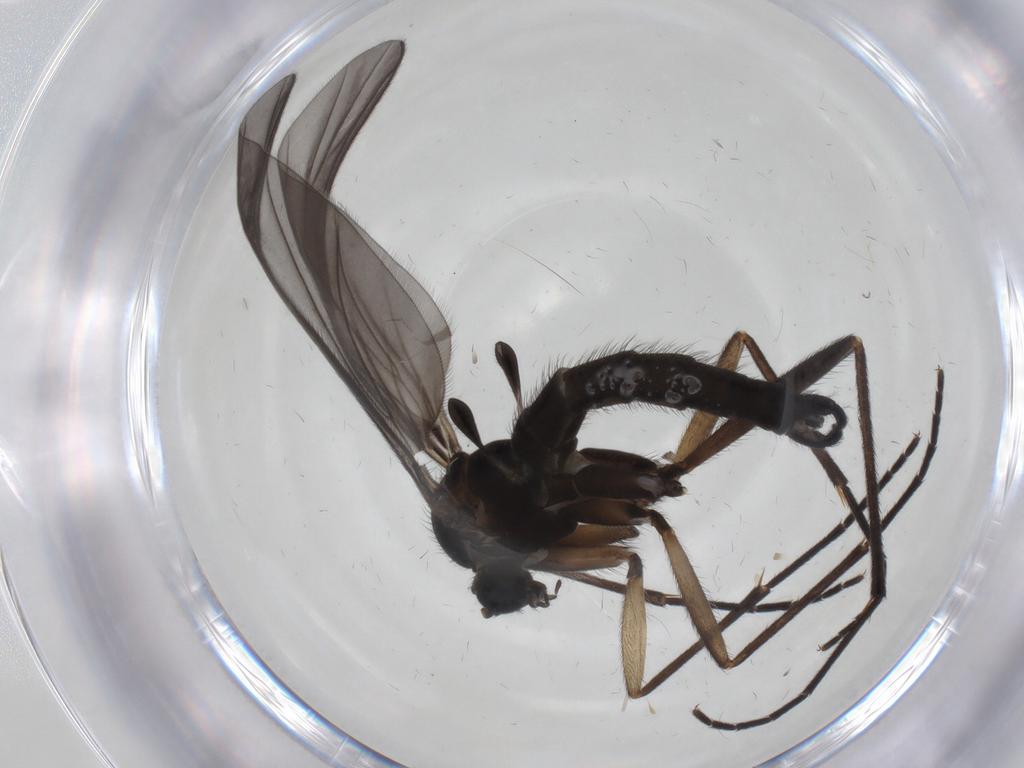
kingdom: Animalia
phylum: Arthropoda
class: Insecta
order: Diptera
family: Sciaridae
